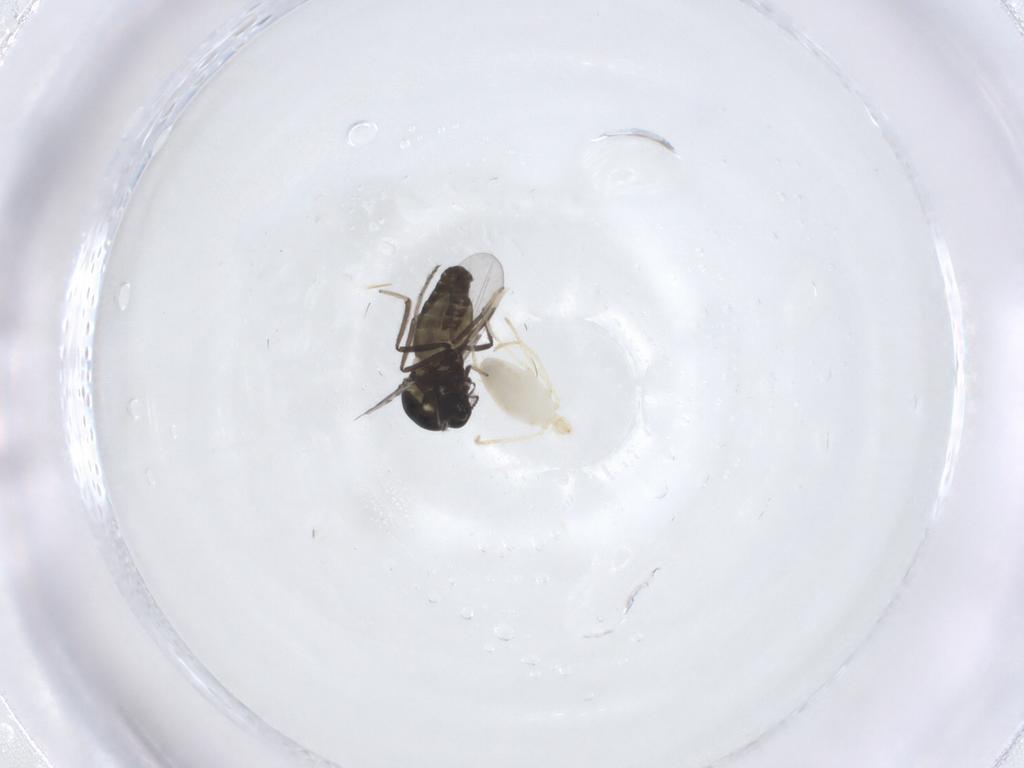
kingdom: Animalia
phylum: Arthropoda
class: Insecta
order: Diptera
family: Ceratopogonidae
